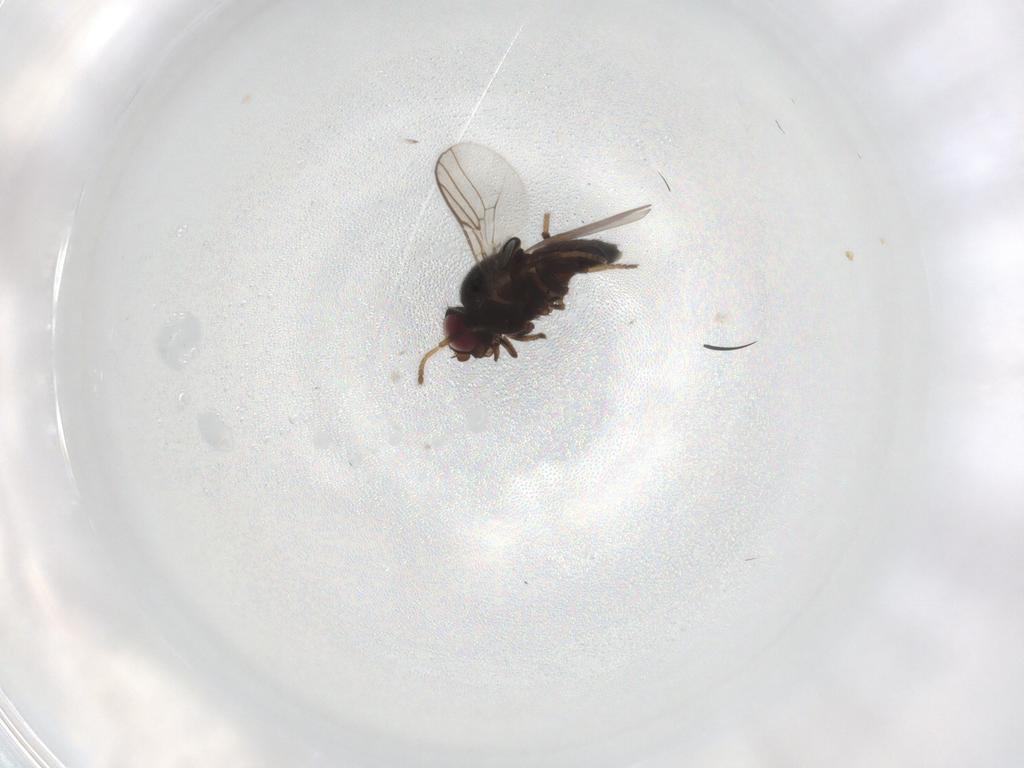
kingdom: Animalia
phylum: Arthropoda
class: Insecta
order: Diptera
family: Chloropidae
